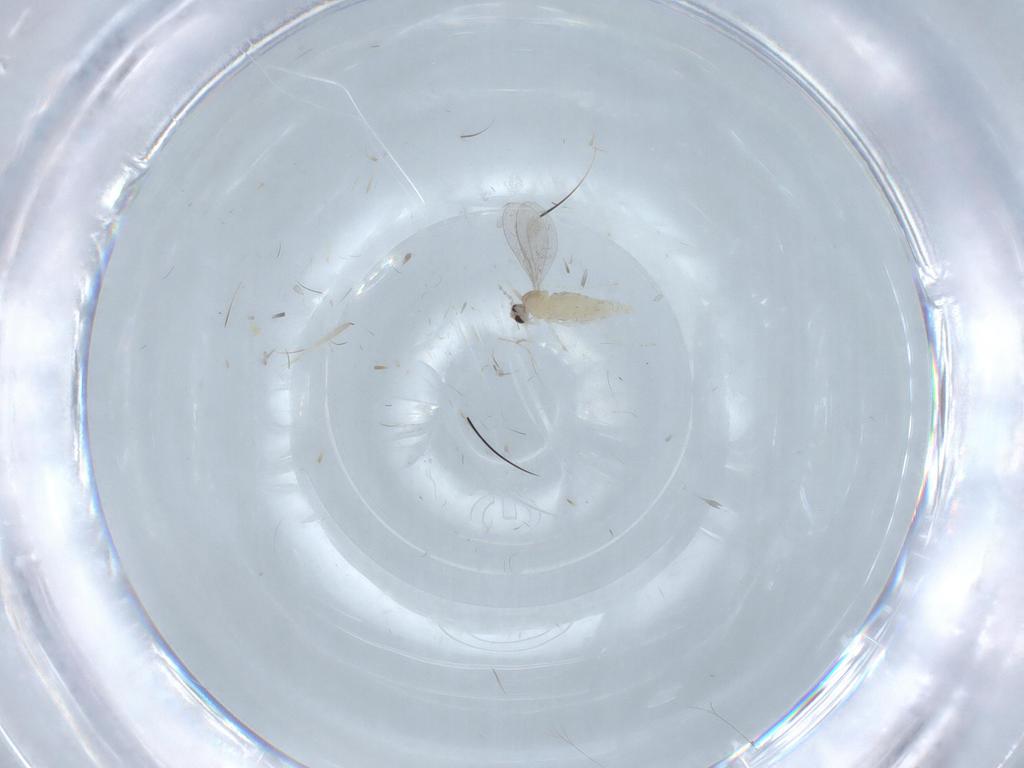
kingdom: Animalia
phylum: Arthropoda
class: Insecta
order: Diptera
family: Cecidomyiidae
